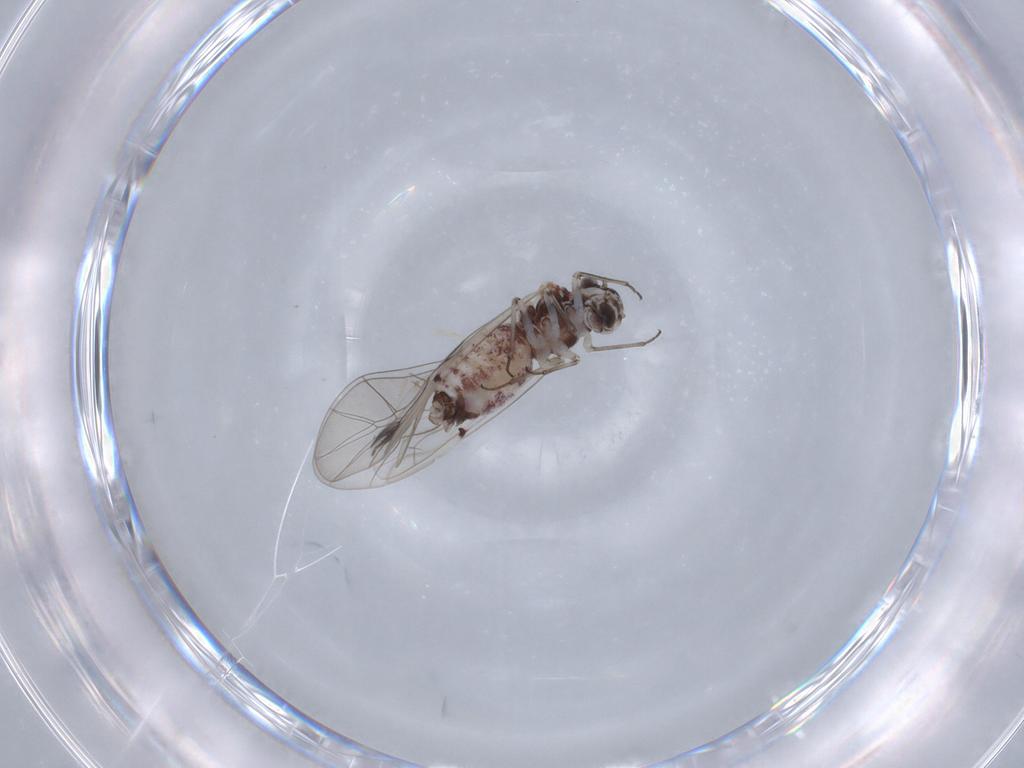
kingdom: Animalia
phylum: Arthropoda
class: Insecta
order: Psocodea
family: Peripsocidae
